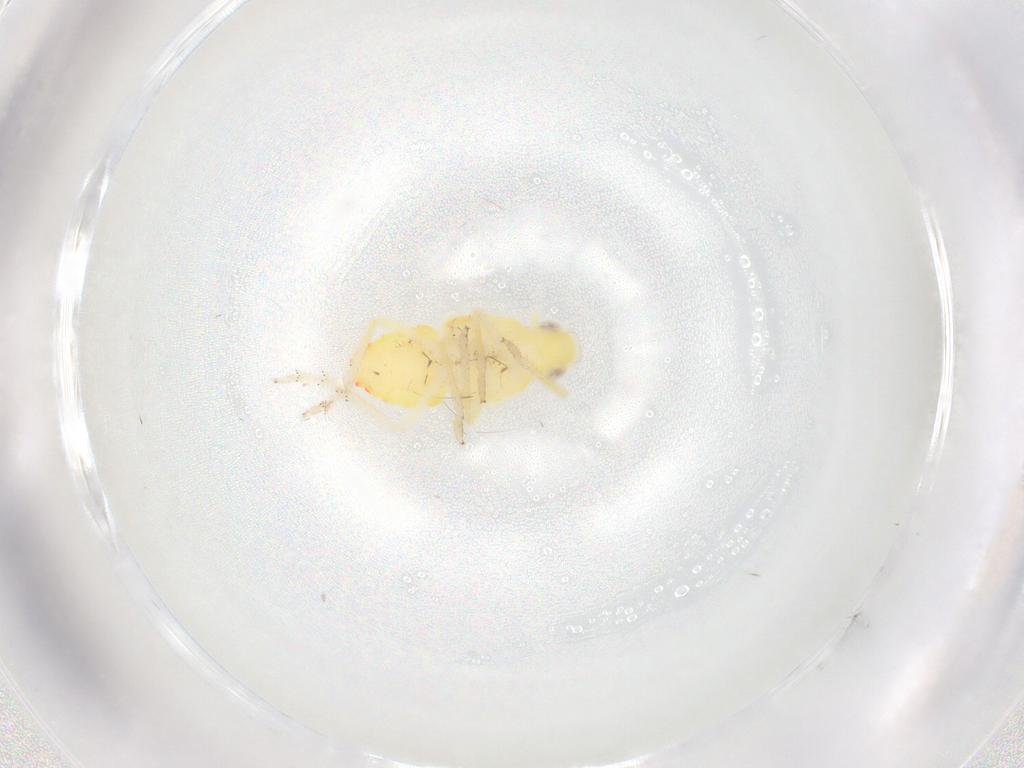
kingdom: Animalia
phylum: Arthropoda
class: Insecta
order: Hemiptera
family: Tropiduchidae
